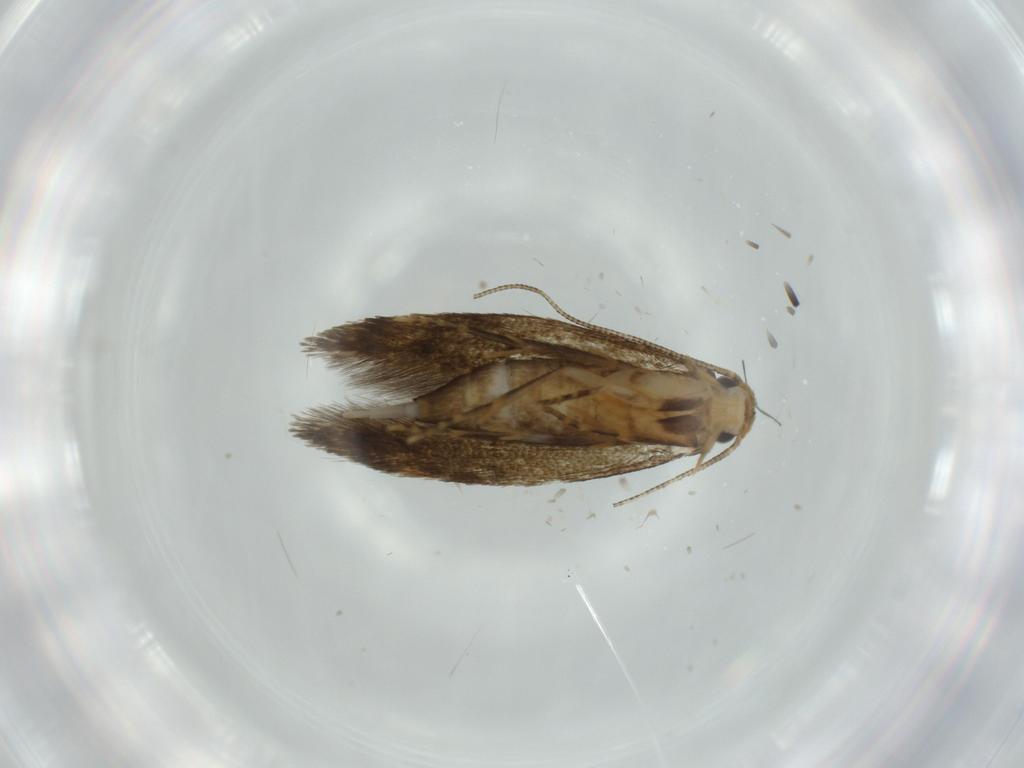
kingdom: Animalia
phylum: Arthropoda
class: Insecta
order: Lepidoptera
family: Tineidae
